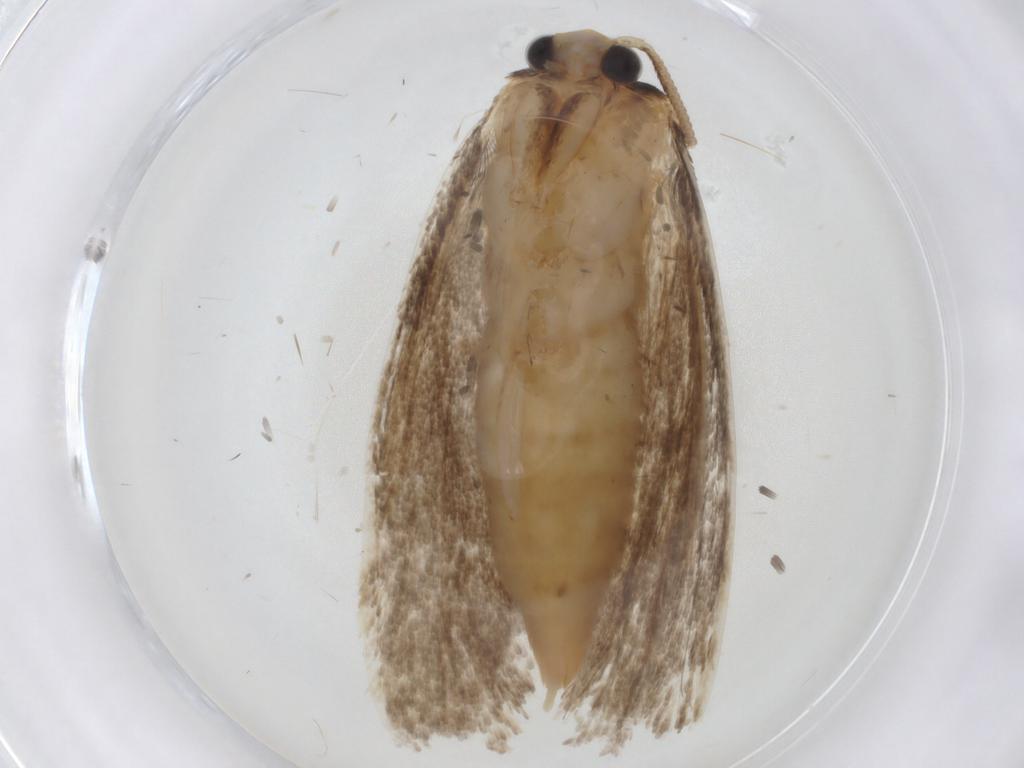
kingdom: Animalia
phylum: Arthropoda
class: Insecta
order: Lepidoptera
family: Tineidae
